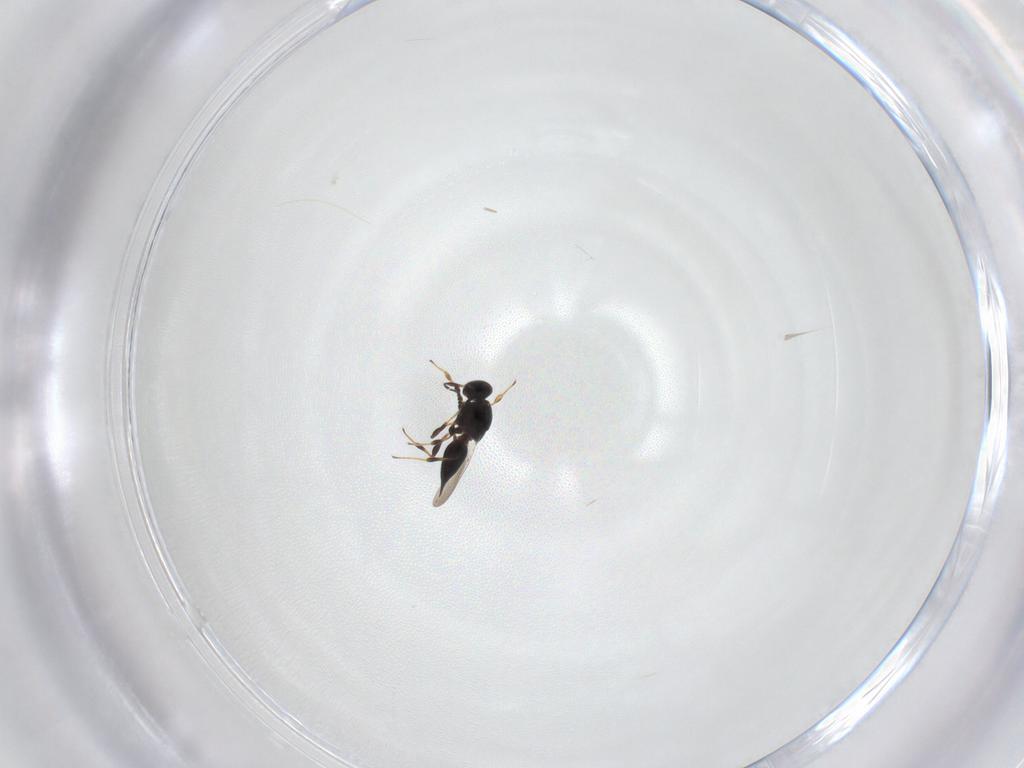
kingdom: Animalia
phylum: Arthropoda
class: Insecta
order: Hymenoptera
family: Platygastridae
